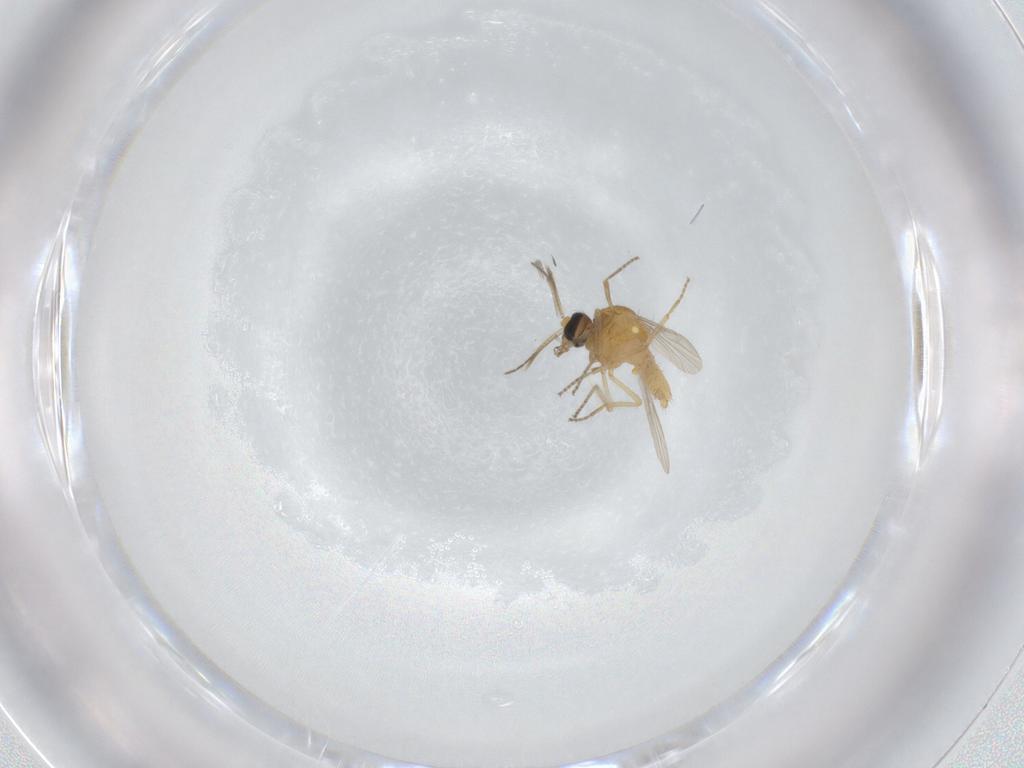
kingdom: Animalia
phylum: Arthropoda
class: Insecta
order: Diptera
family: Ceratopogonidae
